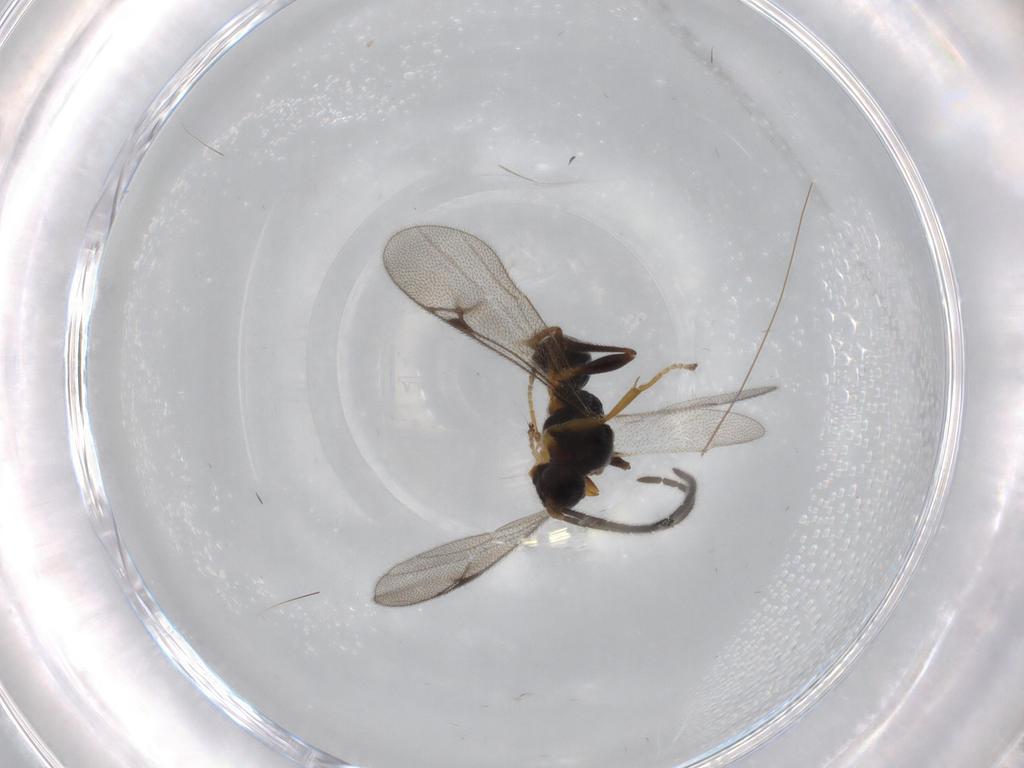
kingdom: Animalia
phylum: Arthropoda
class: Insecta
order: Hymenoptera
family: Proctotrupidae
